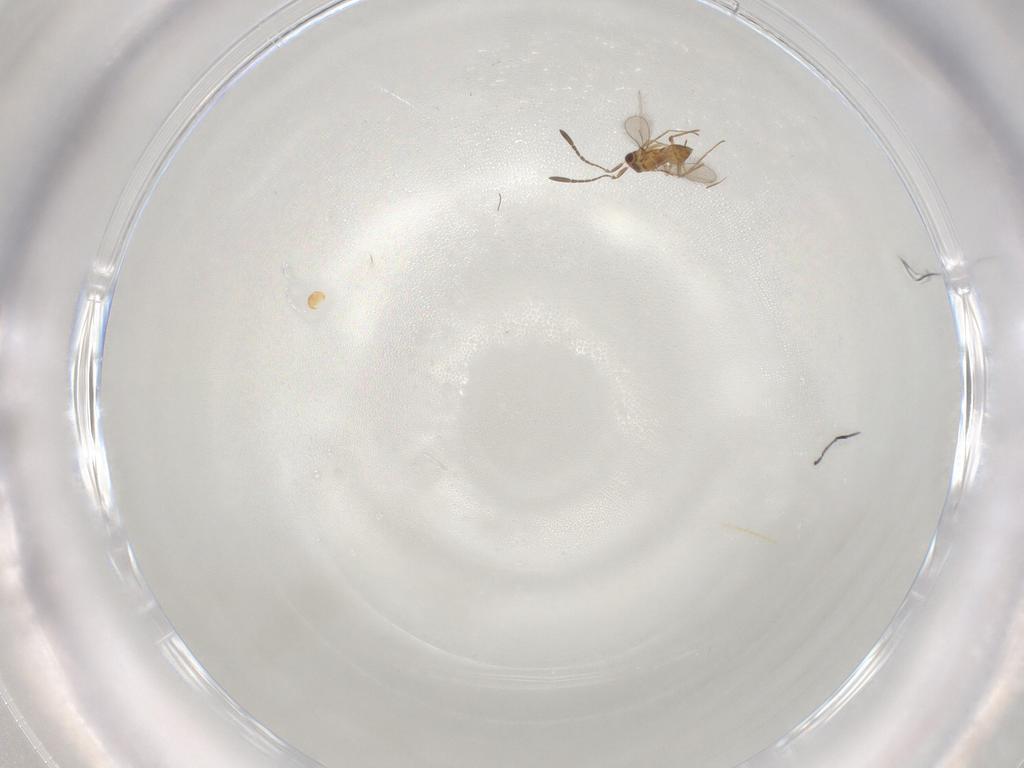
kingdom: Animalia
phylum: Arthropoda
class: Insecta
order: Hymenoptera
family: Mymaridae
